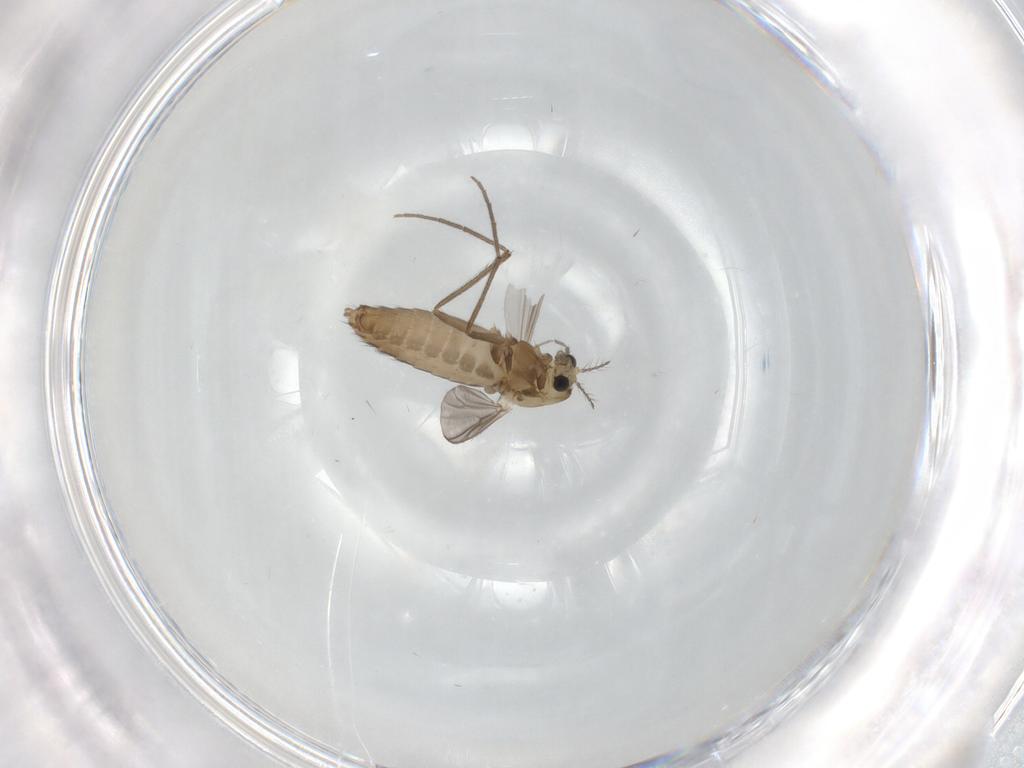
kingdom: Animalia
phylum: Arthropoda
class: Insecta
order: Diptera
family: Chironomidae
